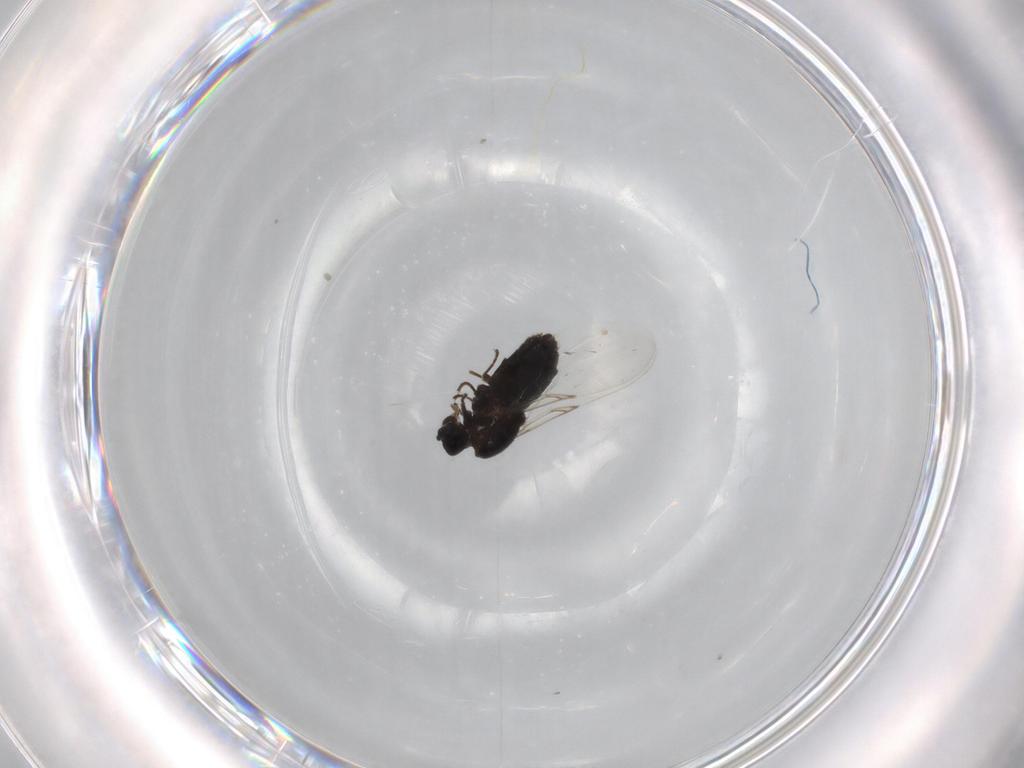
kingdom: Animalia
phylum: Arthropoda
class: Insecta
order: Diptera
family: Scatopsidae
